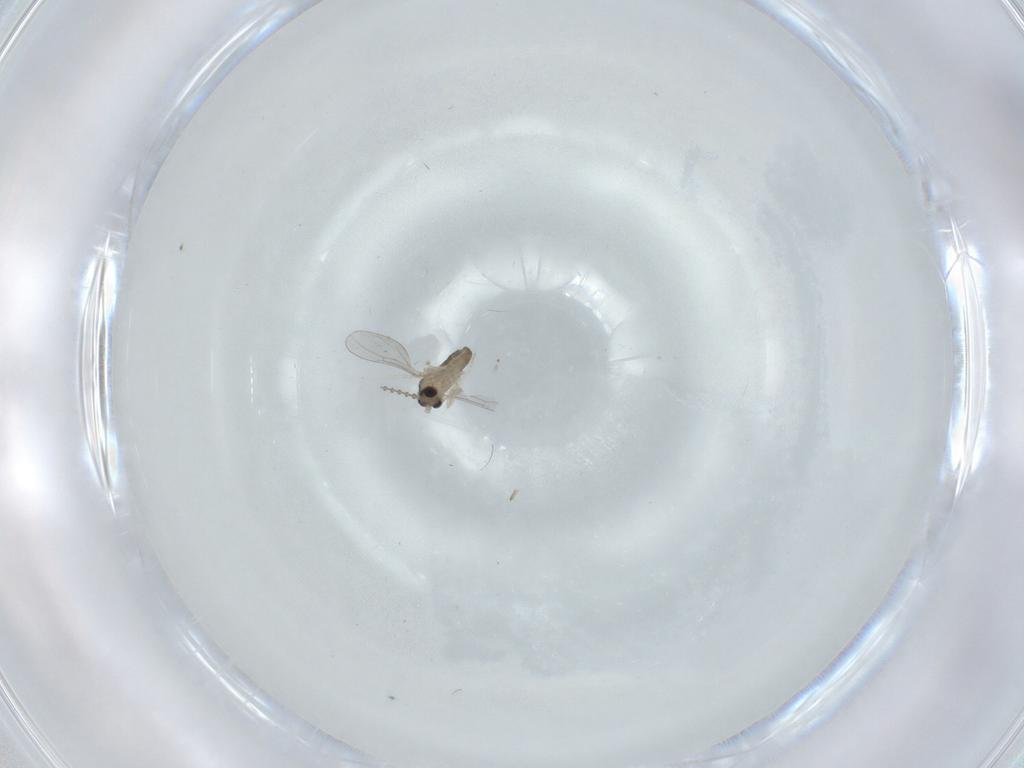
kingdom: Animalia
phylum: Arthropoda
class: Insecta
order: Diptera
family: Cecidomyiidae
